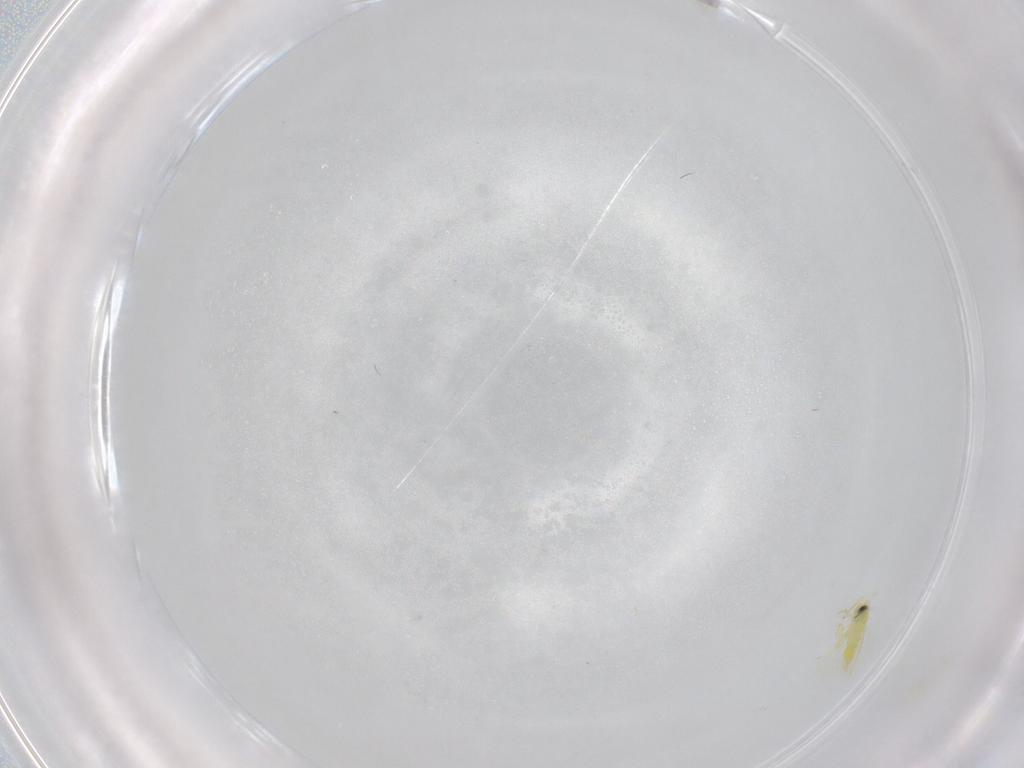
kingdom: Animalia
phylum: Arthropoda
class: Insecta
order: Hemiptera
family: Aleyrodidae
